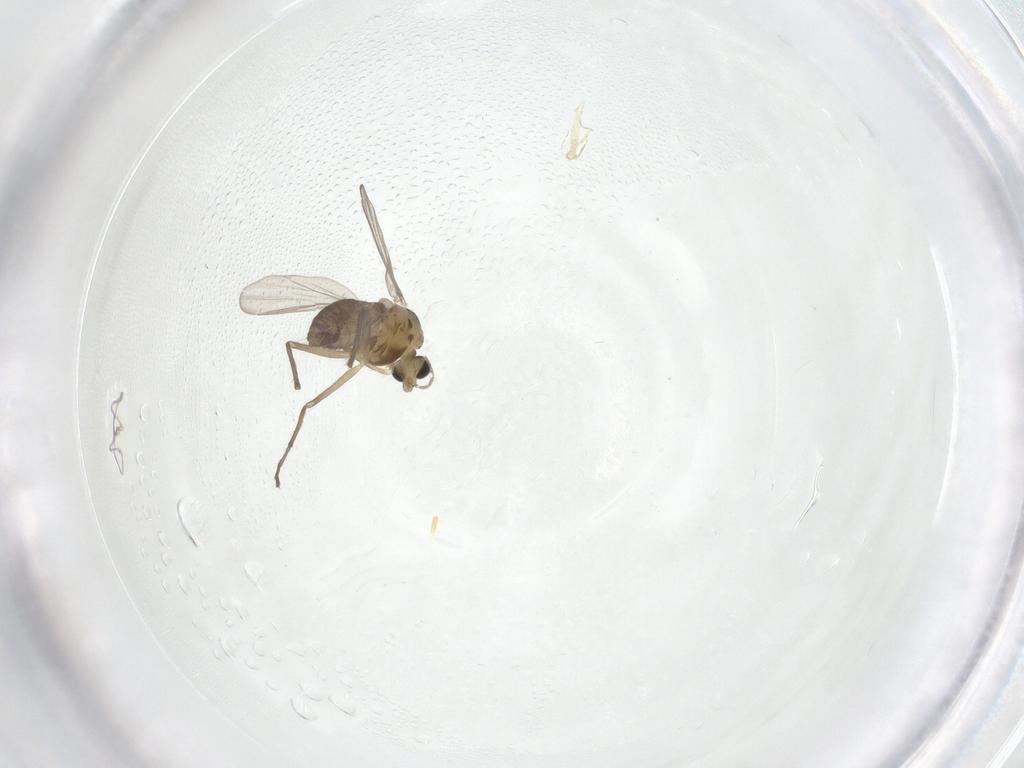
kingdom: Animalia
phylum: Arthropoda
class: Insecta
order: Diptera
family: Chironomidae
